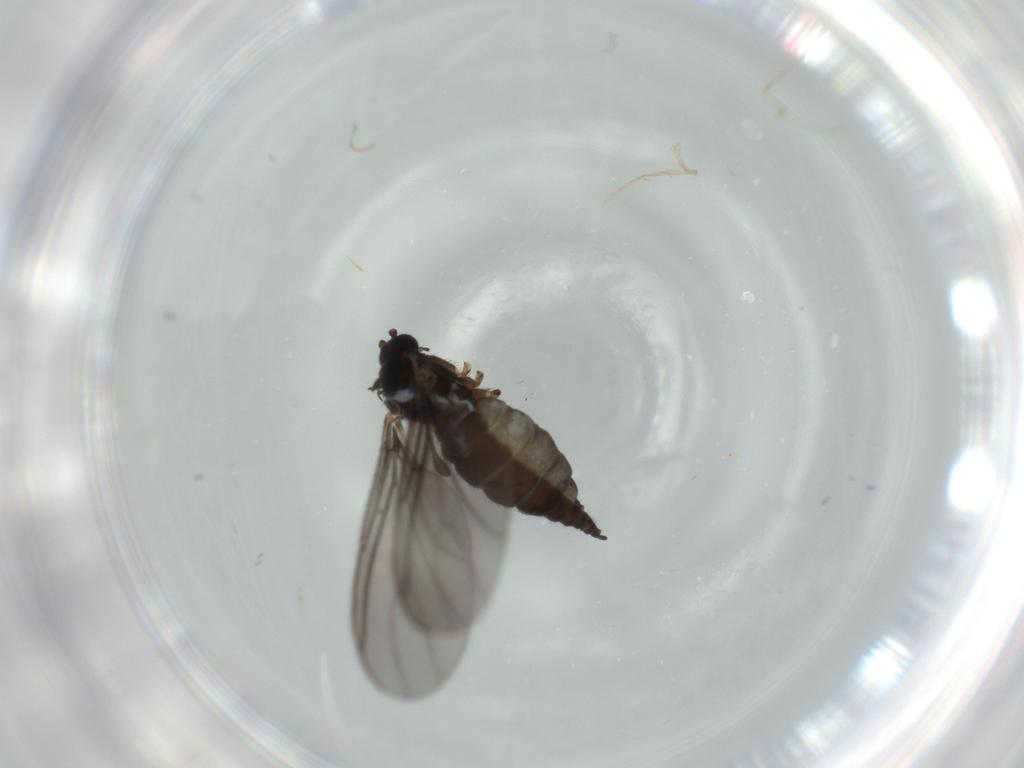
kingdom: Animalia
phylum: Arthropoda
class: Insecta
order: Diptera
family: Sciaridae
